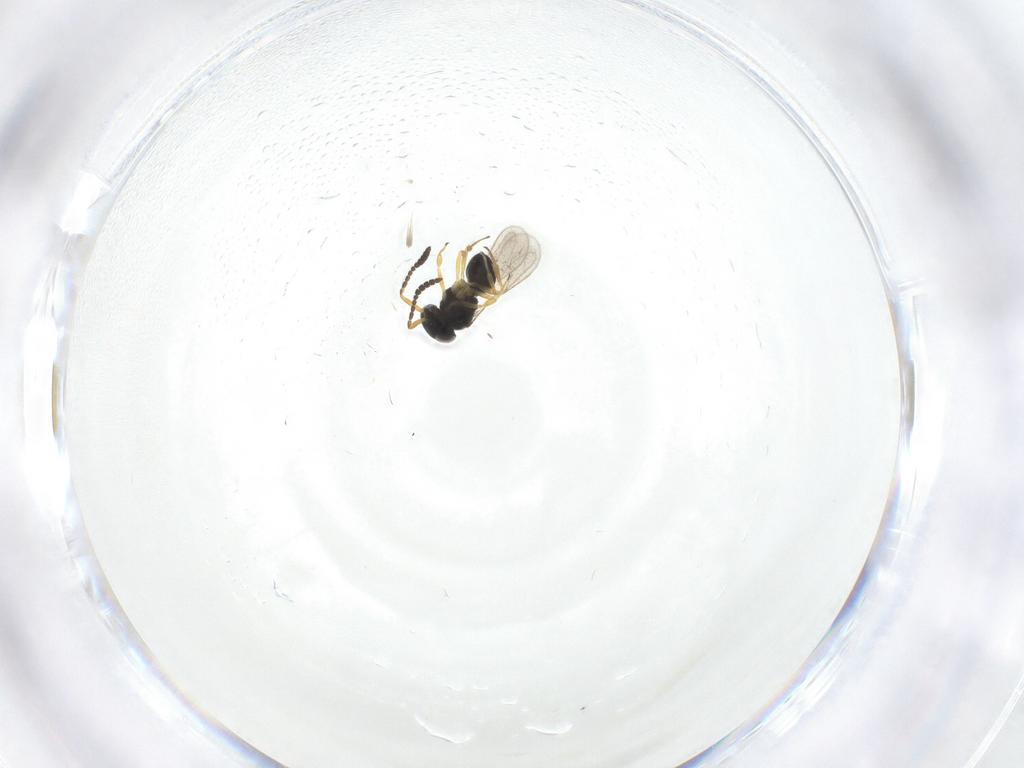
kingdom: Animalia
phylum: Arthropoda
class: Insecta
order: Hymenoptera
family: Scelionidae
